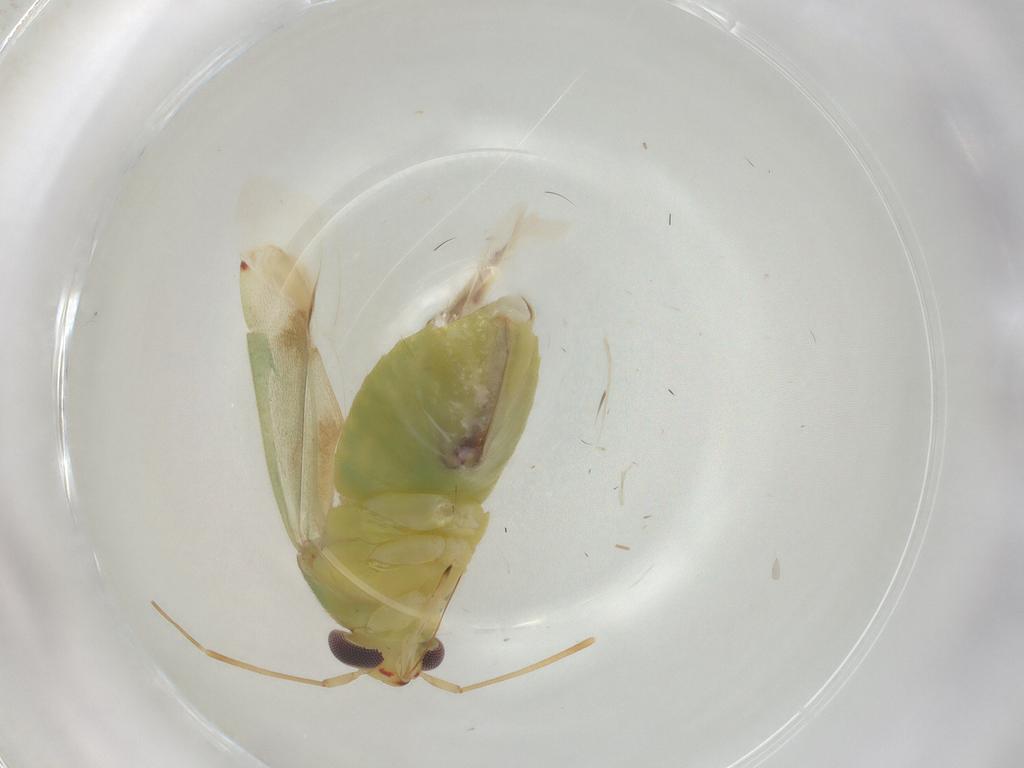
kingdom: Animalia
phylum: Arthropoda
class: Insecta
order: Hemiptera
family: Miridae
